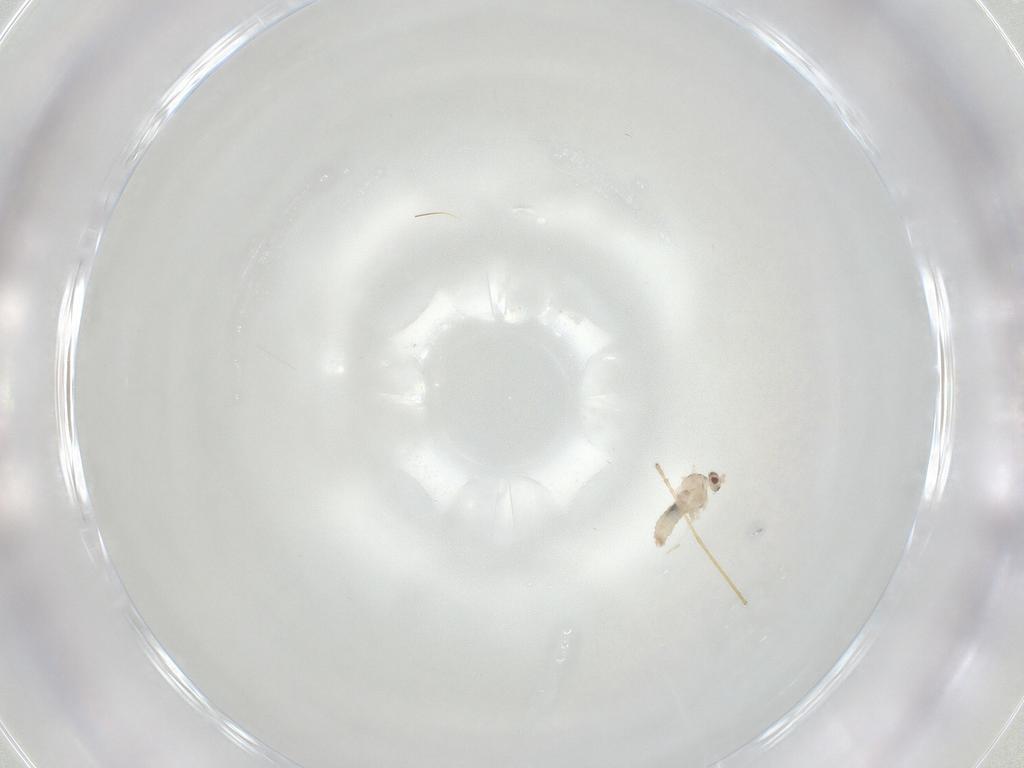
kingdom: Animalia
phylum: Arthropoda
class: Insecta
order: Diptera
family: Cecidomyiidae
